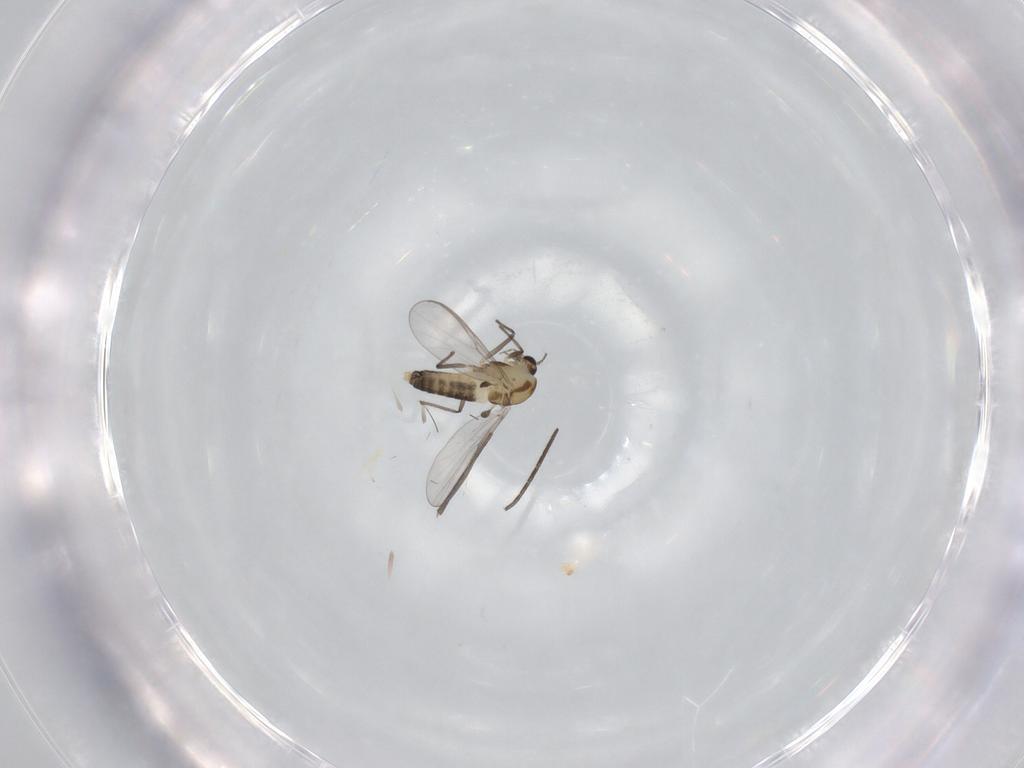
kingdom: Animalia
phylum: Arthropoda
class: Insecta
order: Diptera
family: Chironomidae
